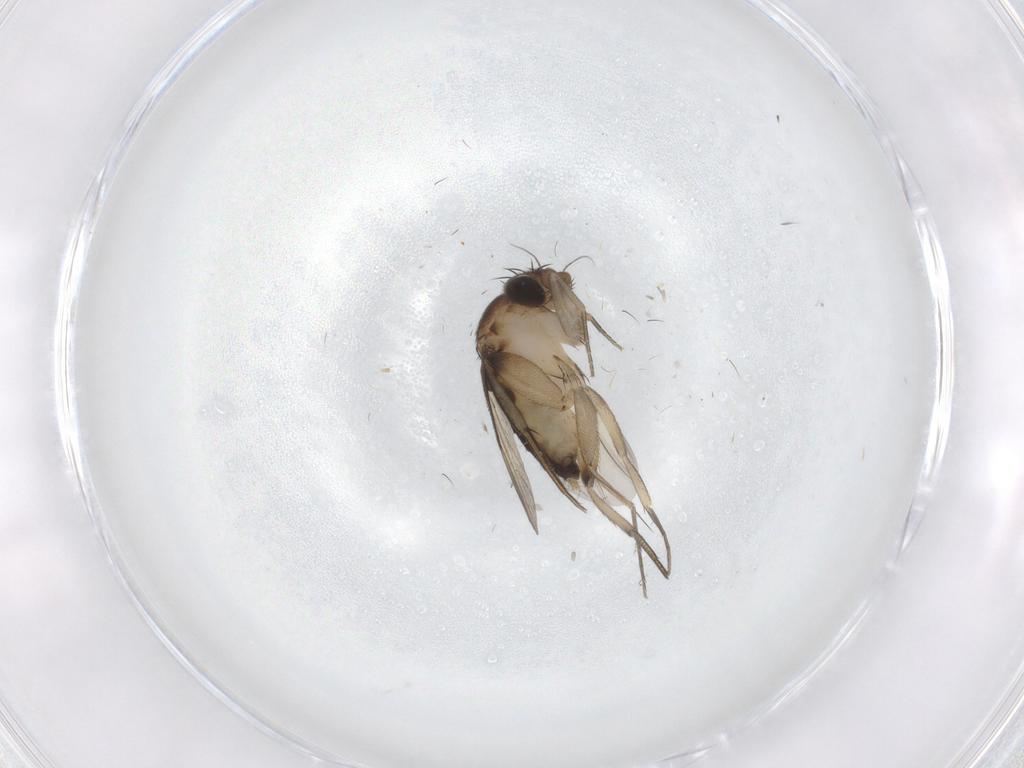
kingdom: Animalia
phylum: Arthropoda
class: Insecta
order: Diptera
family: Phoridae
